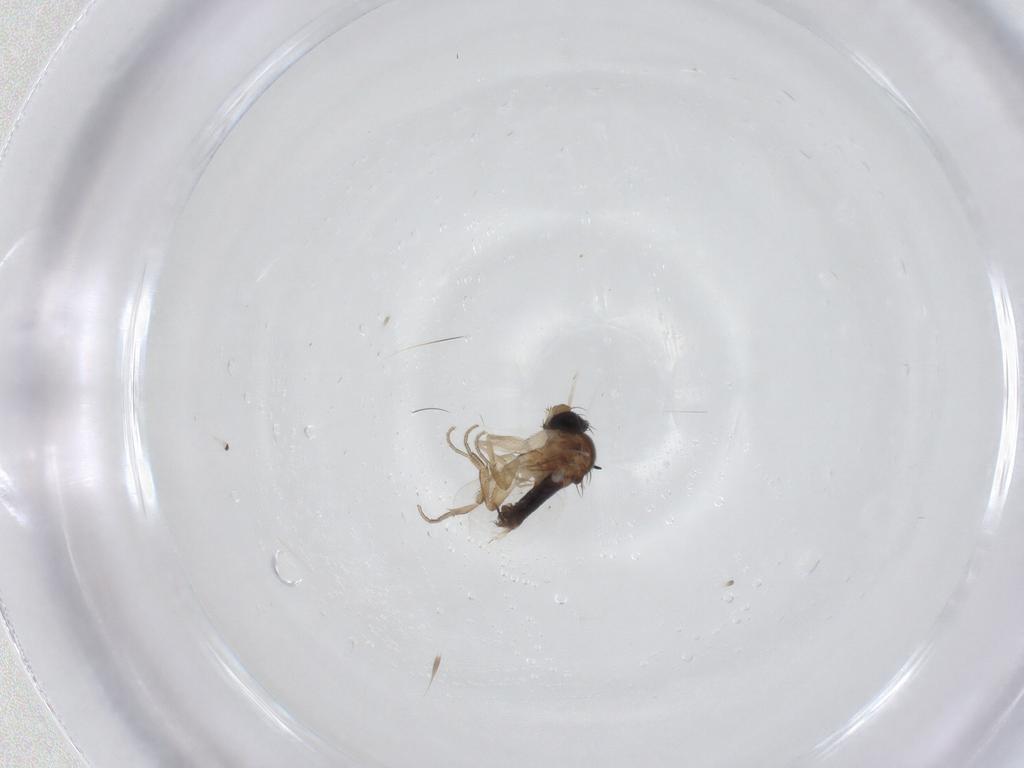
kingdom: Animalia
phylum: Arthropoda
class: Insecta
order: Diptera
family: Cecidomyiidae
